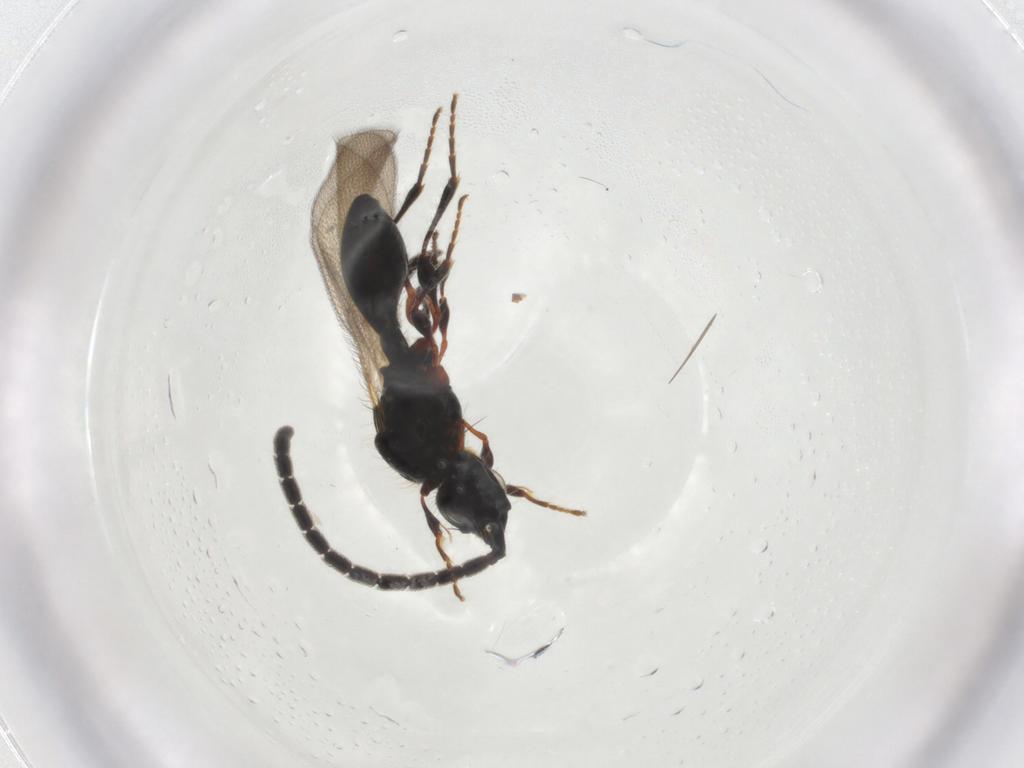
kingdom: Animalia
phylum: Arthropoda
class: Insecta
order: Hymenoptera
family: Diapriidae
